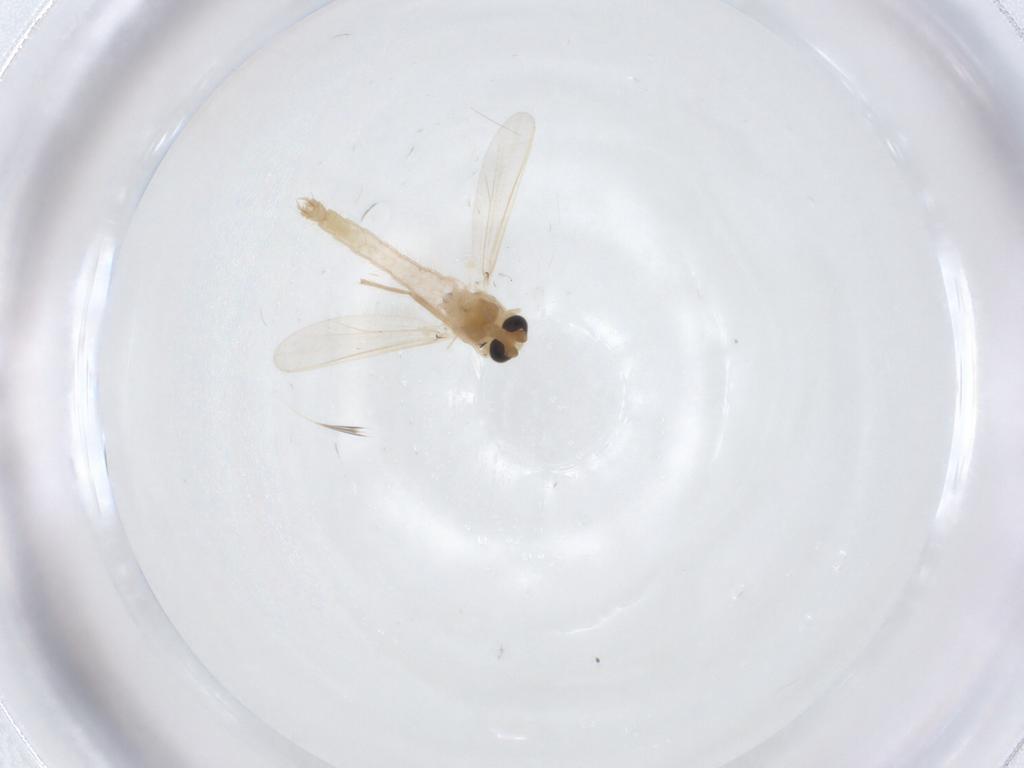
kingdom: Animalia
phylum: Arthropoda
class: Insecta
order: Diptera
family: Chironomidae
